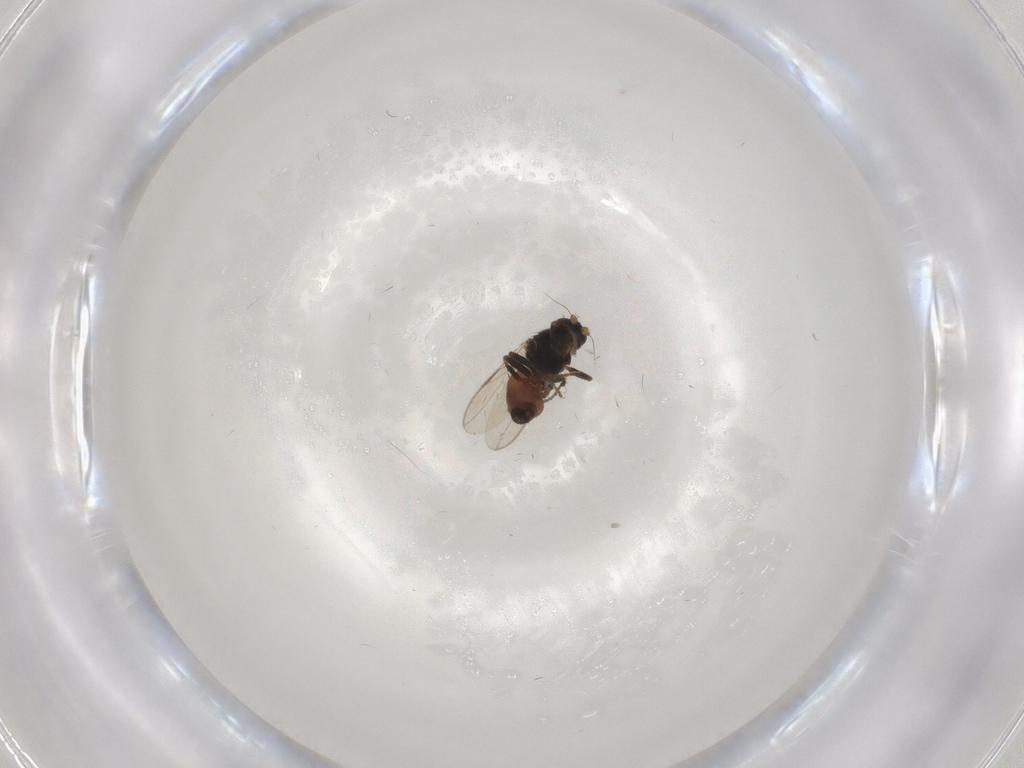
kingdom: Animalia
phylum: Arthropoda
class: Insecta
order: Diptera
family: Sphaeroceridae
